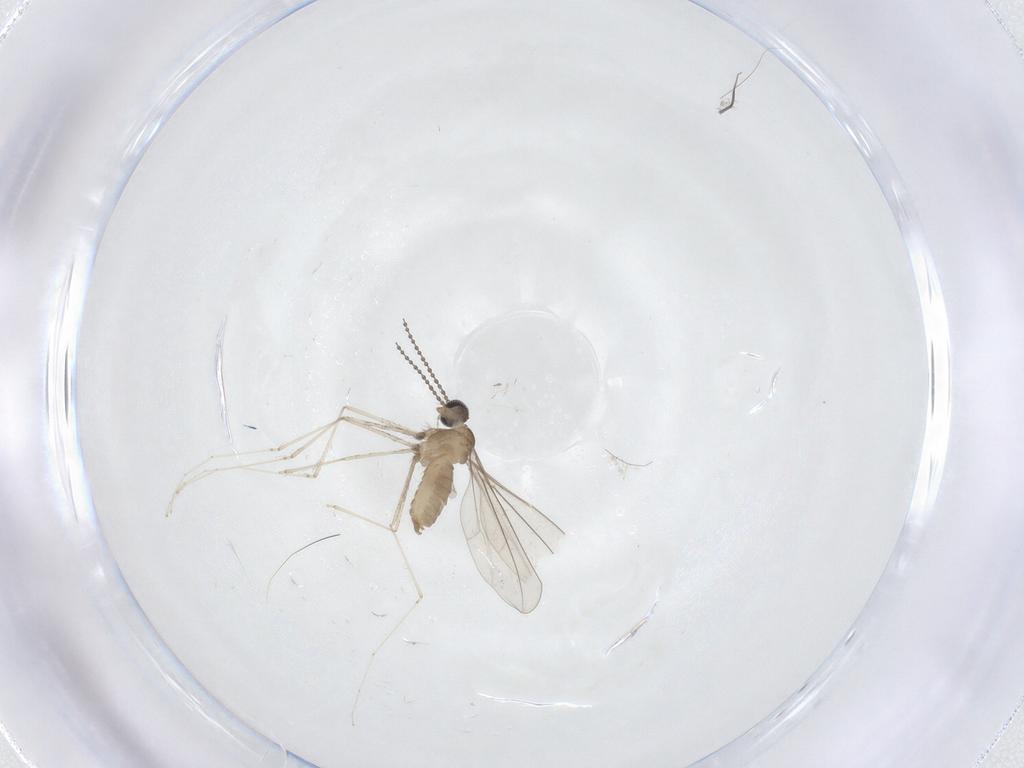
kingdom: Animalia
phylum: Arthropoda
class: Insecta
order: Diptera
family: Chironomidae
